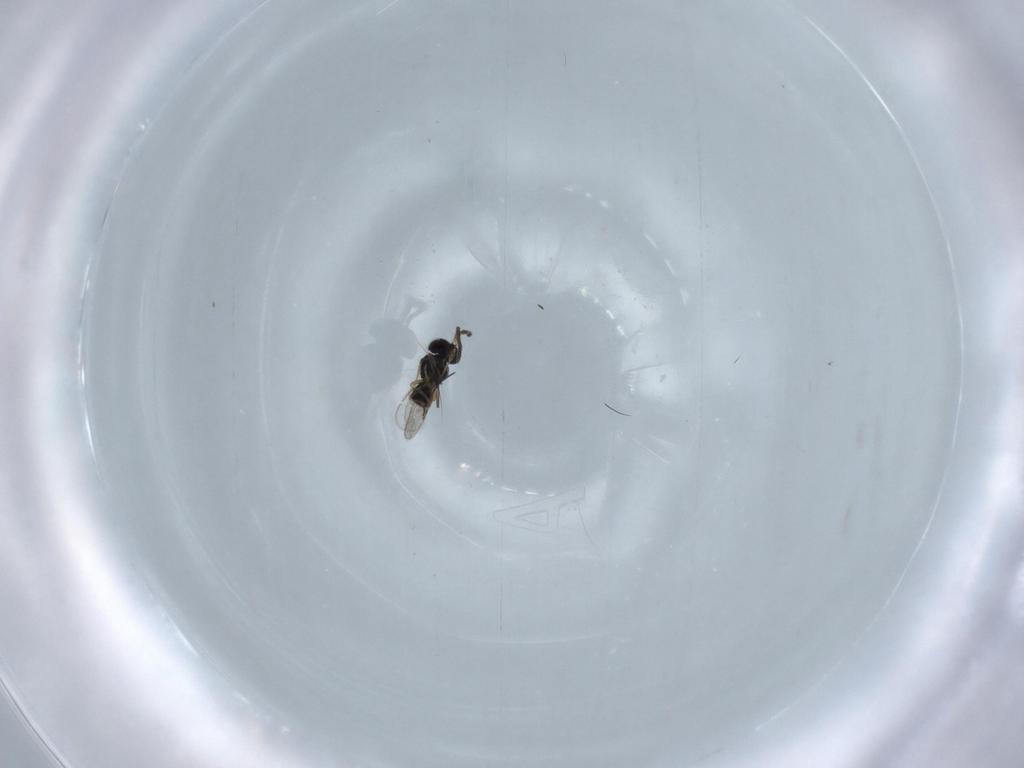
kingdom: Animalia
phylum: Arthropoda
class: Insecta
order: Hymenoptera
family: Scelionidae
